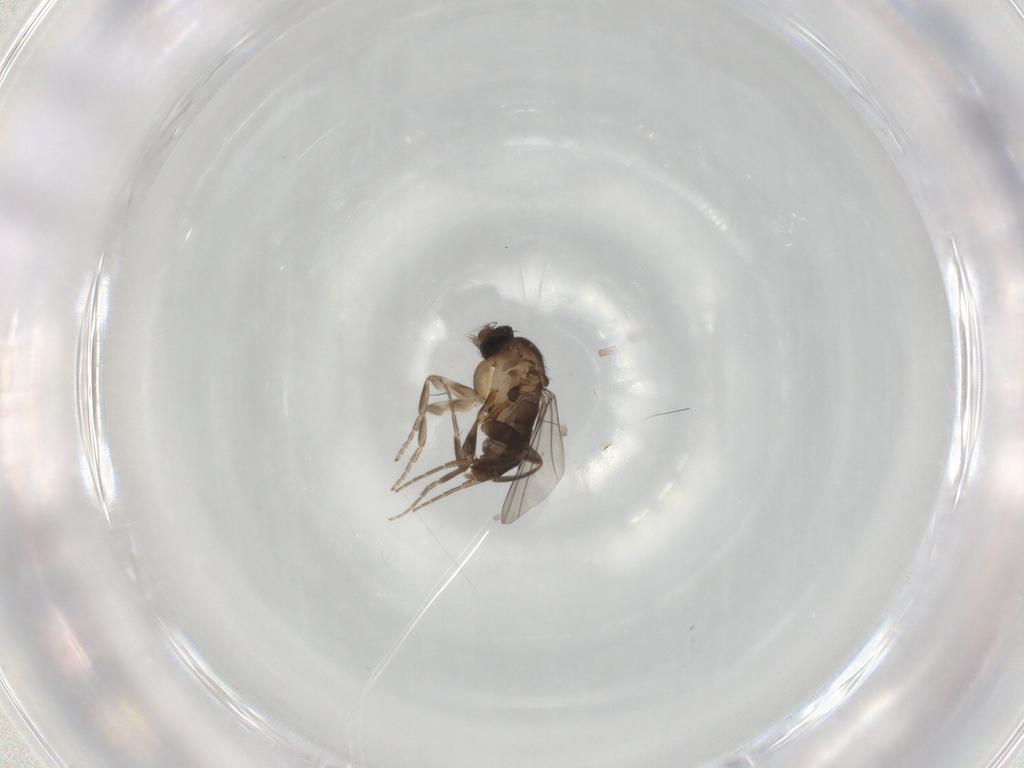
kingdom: Animalia
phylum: Arthropoda
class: Insecta
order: Diptera
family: Phoridae
